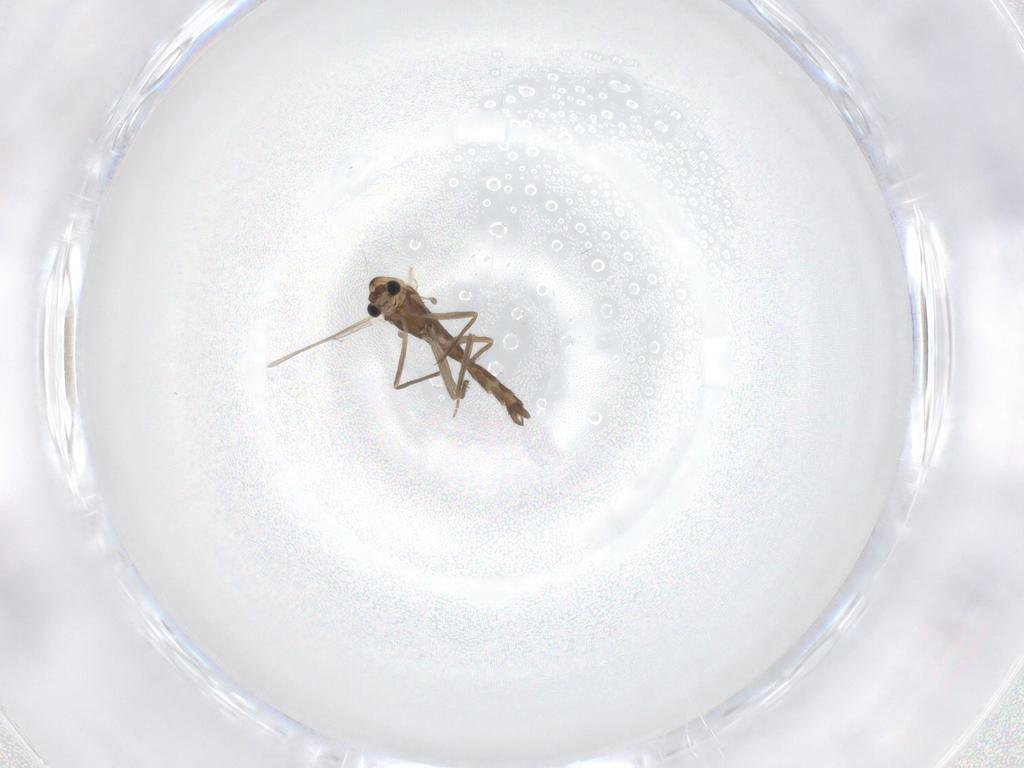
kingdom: Animalia
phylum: Arthropoda
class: Insecta
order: Diptera
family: Chironomidae
